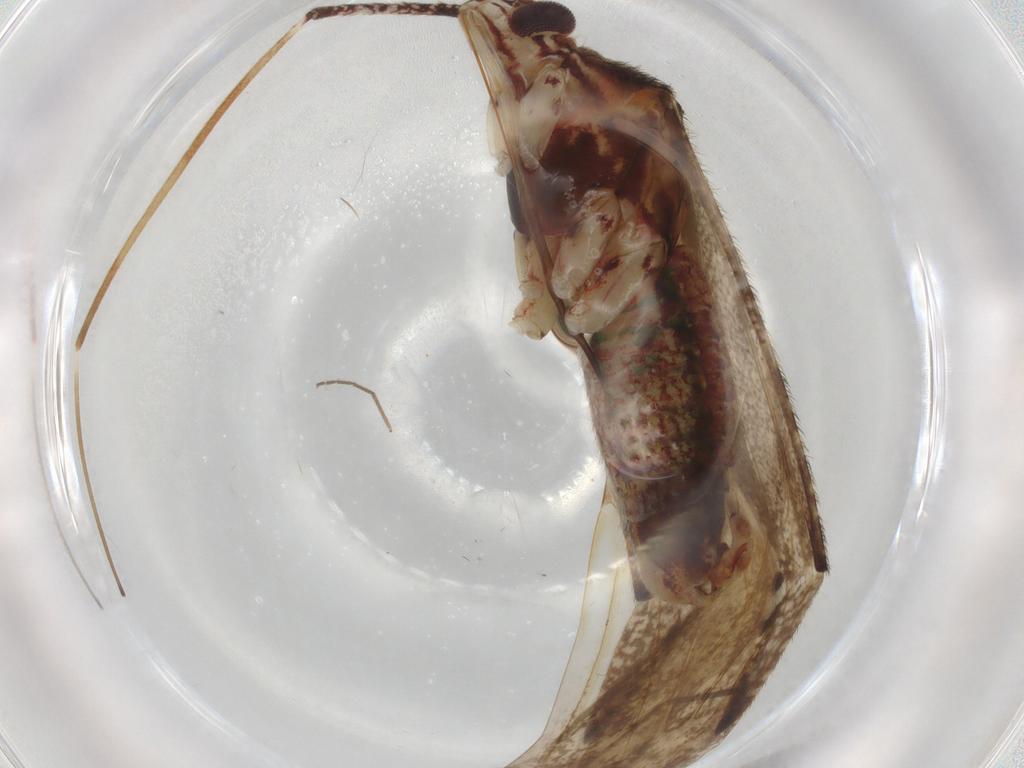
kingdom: Animalia
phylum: Arthropoda
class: Insecta
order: Hemiptera
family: Miridae
